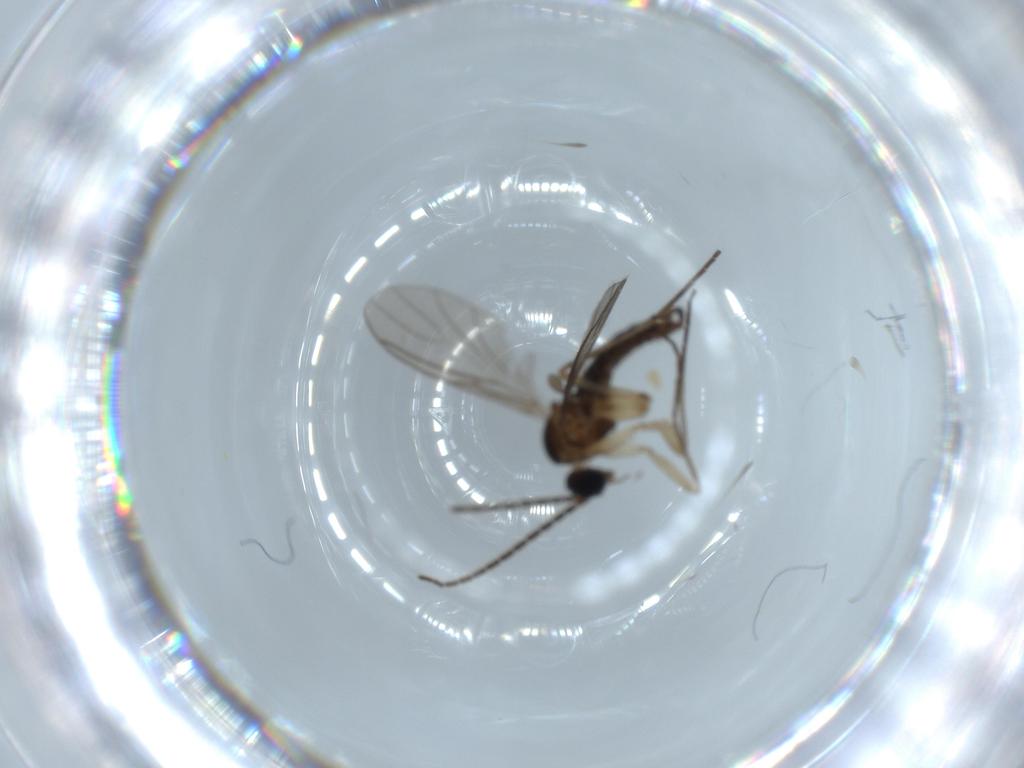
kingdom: Animalia
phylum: Arthropoda
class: Insecta
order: Diptera
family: Sciaridae
